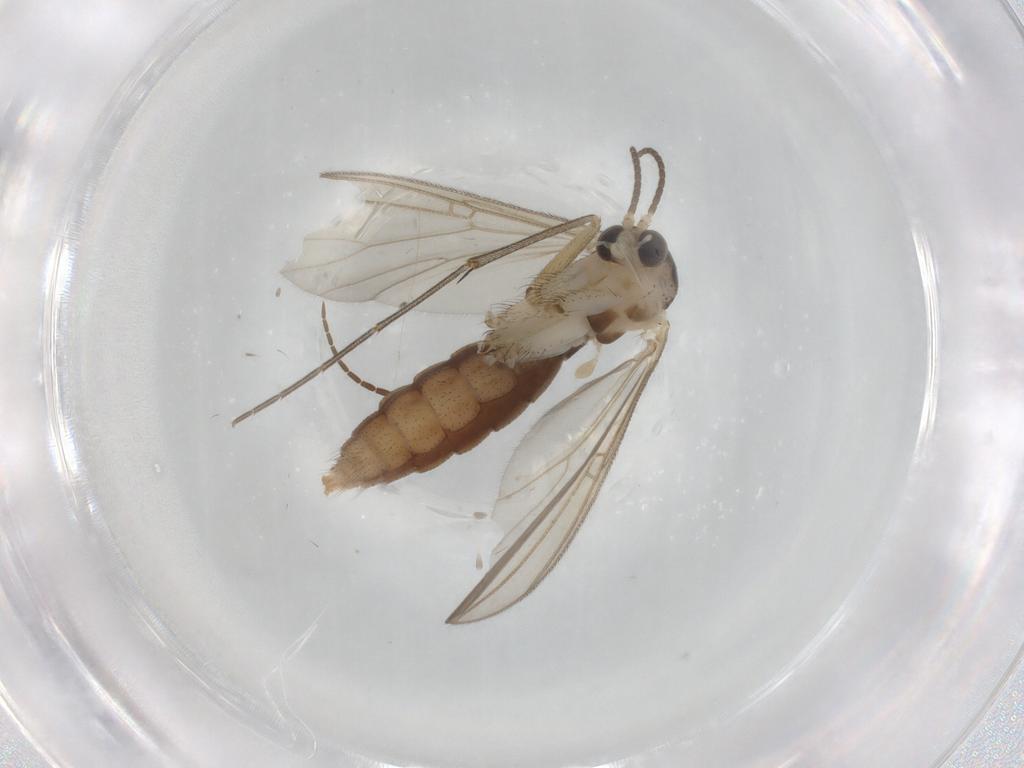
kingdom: Animalia
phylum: Arthropoda
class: Insecta
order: Diptera
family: Mycetophilidae
